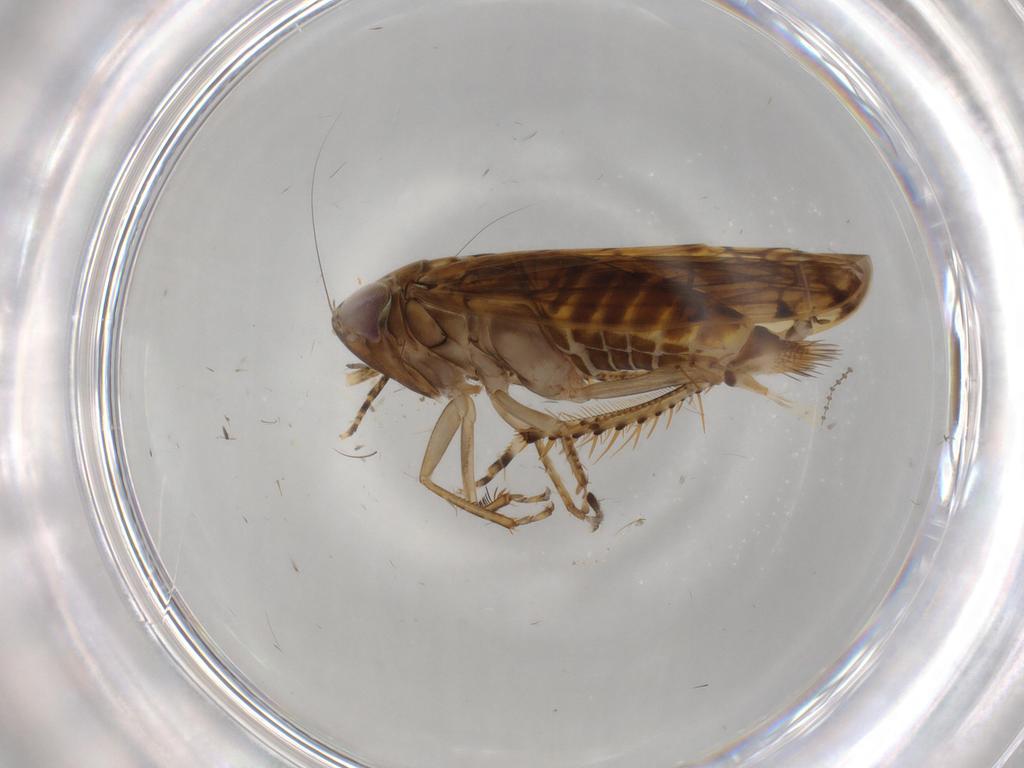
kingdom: Animalia
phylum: Arthropoda
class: Insecta
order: Hemiptera
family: Cicadellidae
